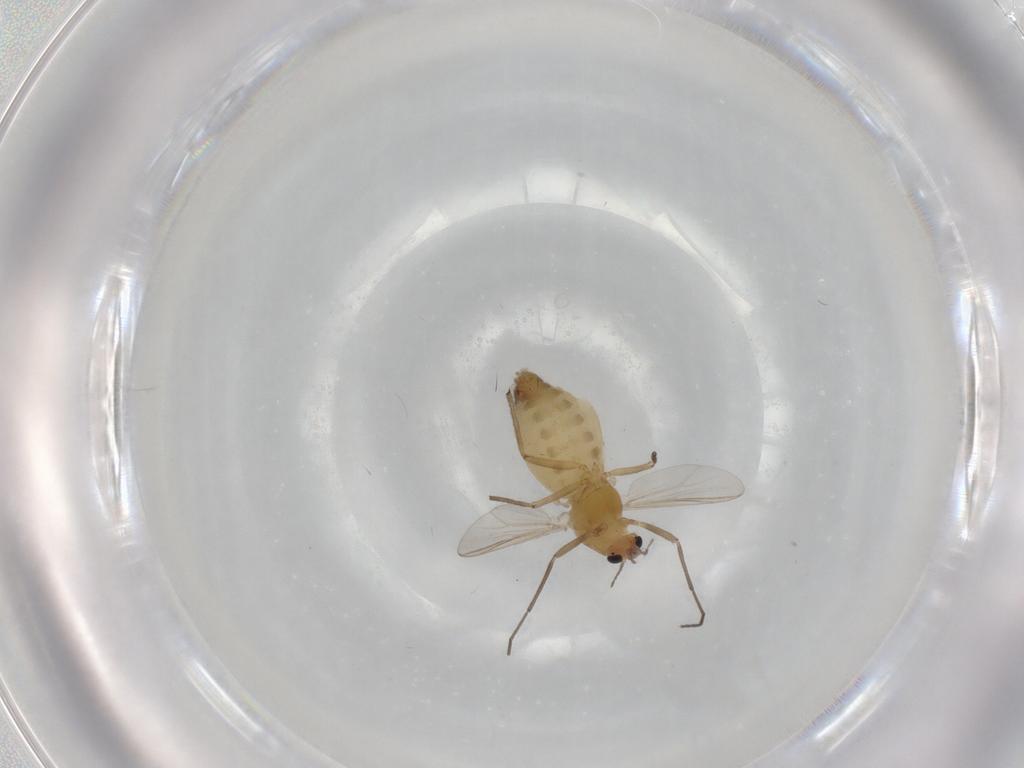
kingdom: Animalia
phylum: Arthropoda
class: Insecta
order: Diptera
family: Chironomidae
